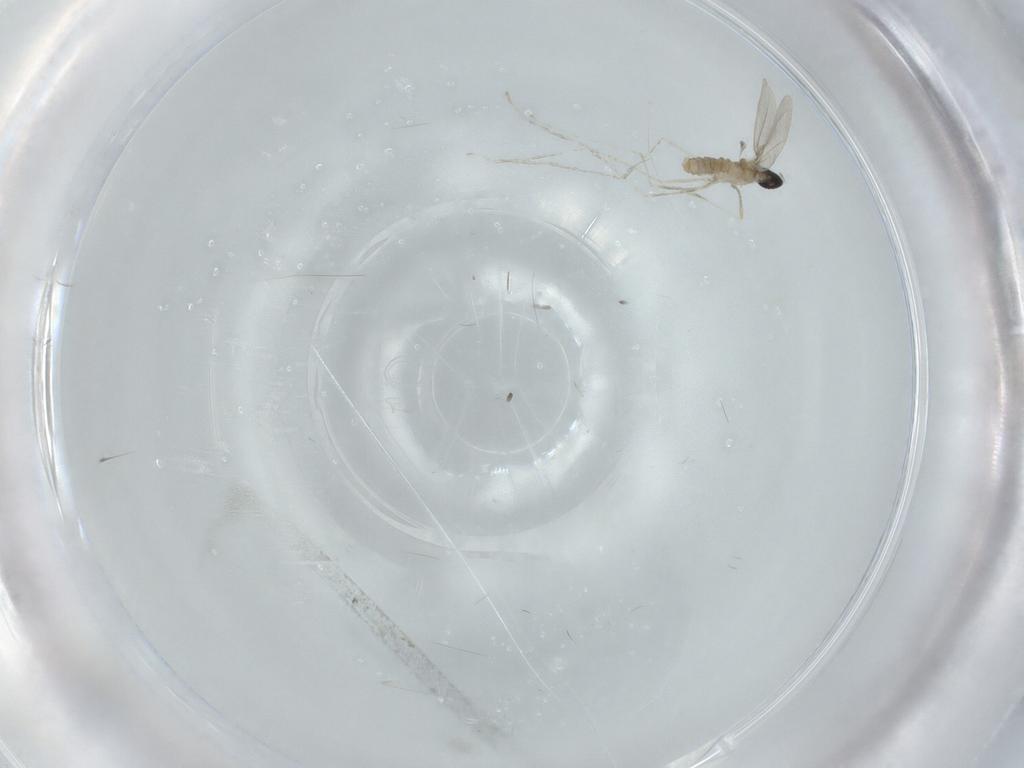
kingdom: Animalia
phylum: Arthropoda
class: Insecta
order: Diptera
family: Cecidomyiidae
